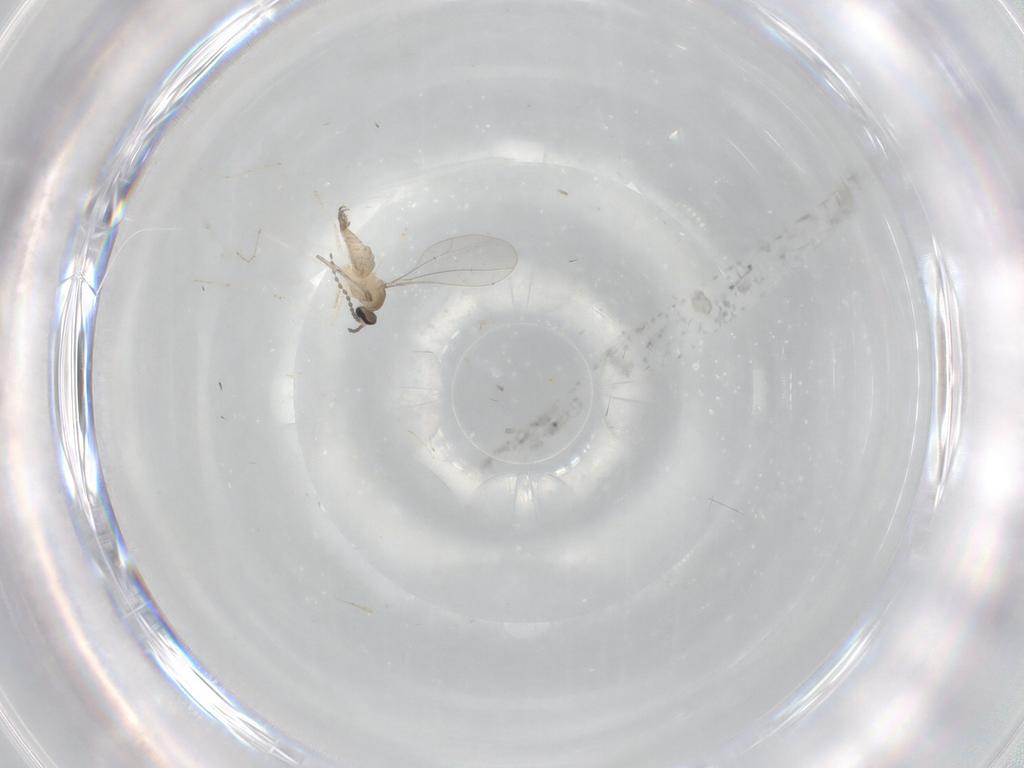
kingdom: Animalia
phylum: Arthropoda
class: Insecta
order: Diptera
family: Cecidomyiidae
